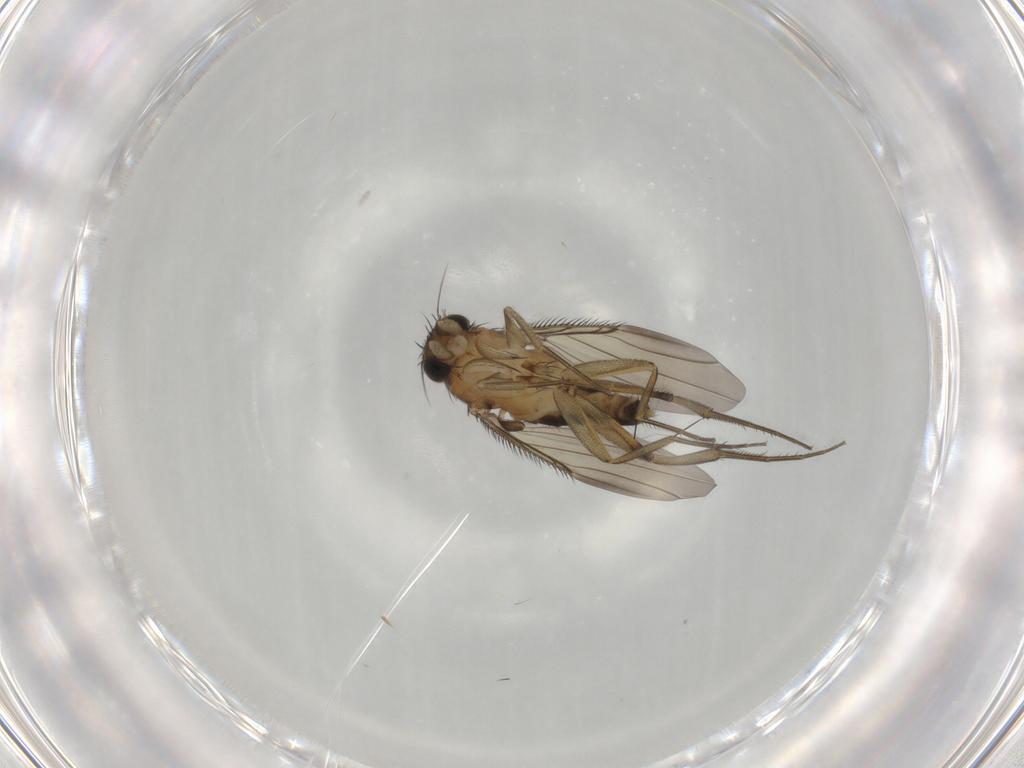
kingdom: Animalia
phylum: Arthropoda
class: Insecta
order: Diptera
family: Phoridae
